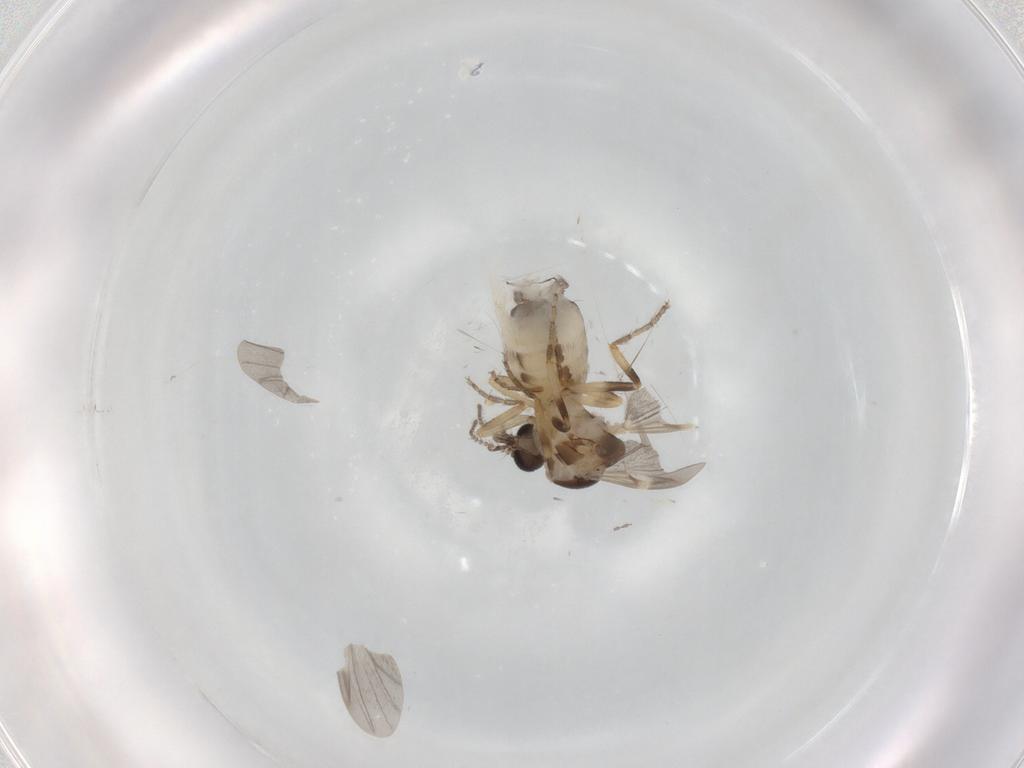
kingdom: Animalia
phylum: Arthropoda
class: Insecta
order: Diptera
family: Ceratopogonidae
